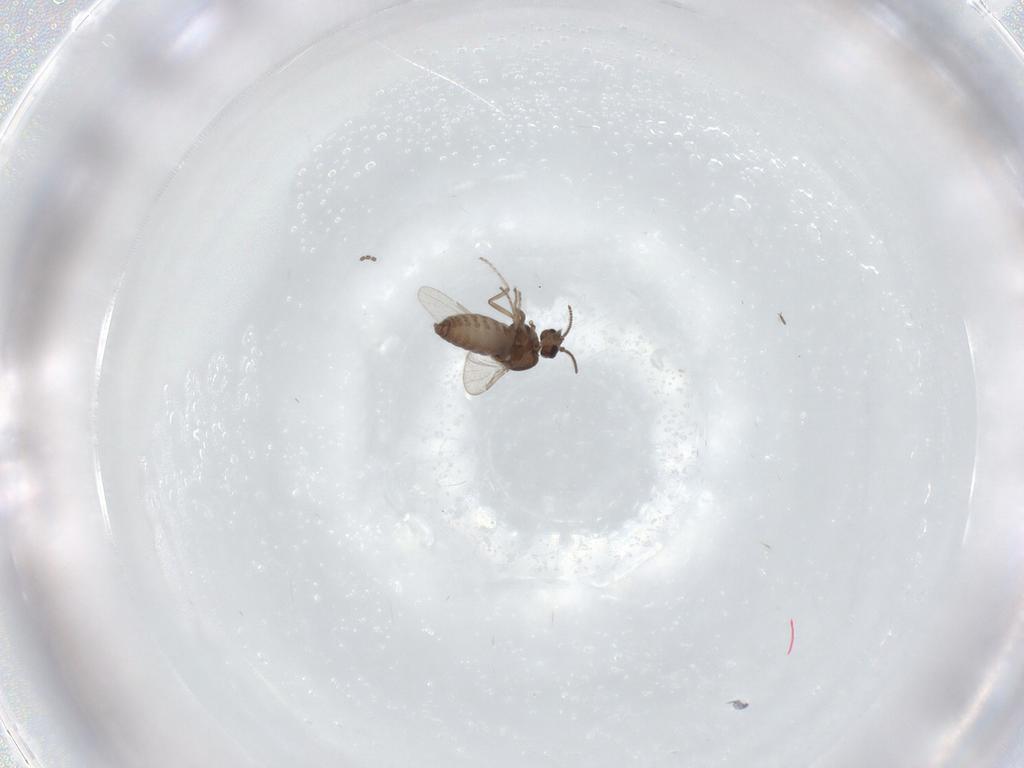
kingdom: Animalia
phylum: Arthropoda
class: Insecta
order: Diptera
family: Ceratopogonidae
